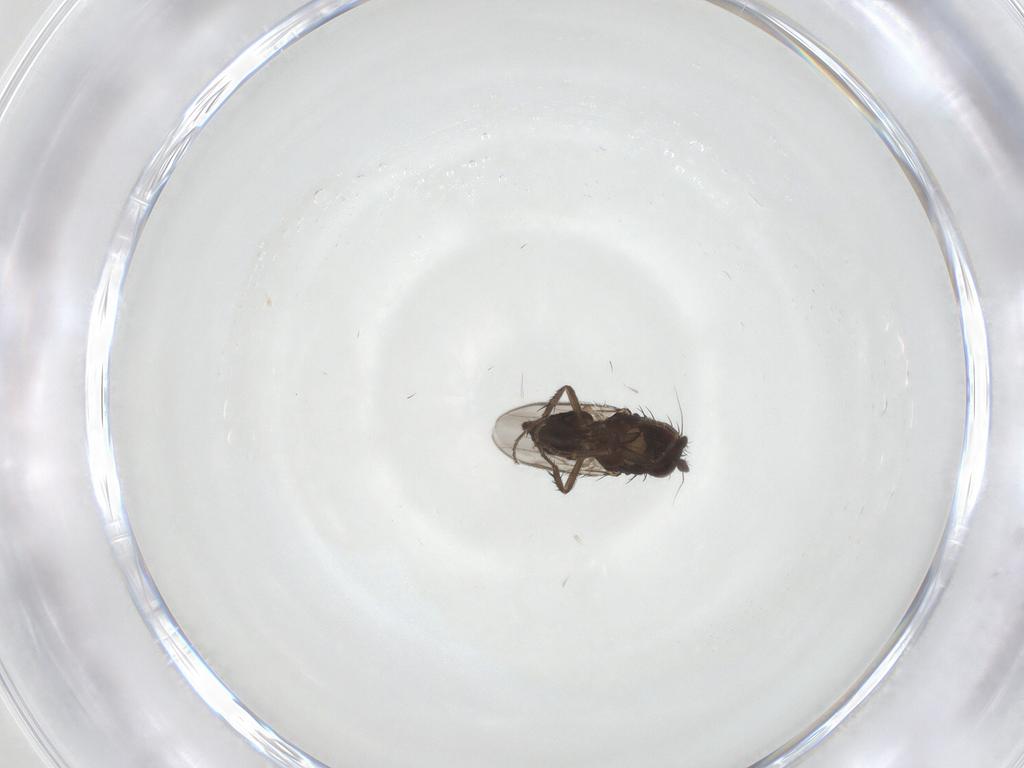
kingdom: Animalia
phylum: Arthropoda
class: Insecta
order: Diptera
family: Sphaeroceridae
